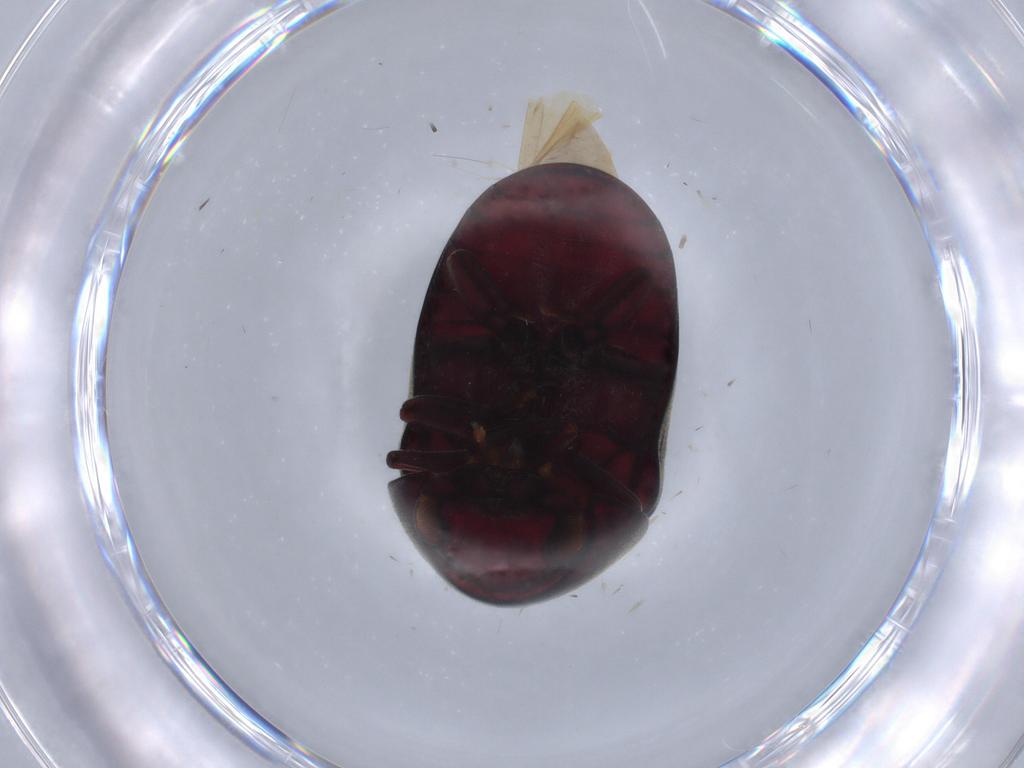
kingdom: Animalia
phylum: Arthropoda
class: Insecta
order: Coleoptera
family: Ptinidae
